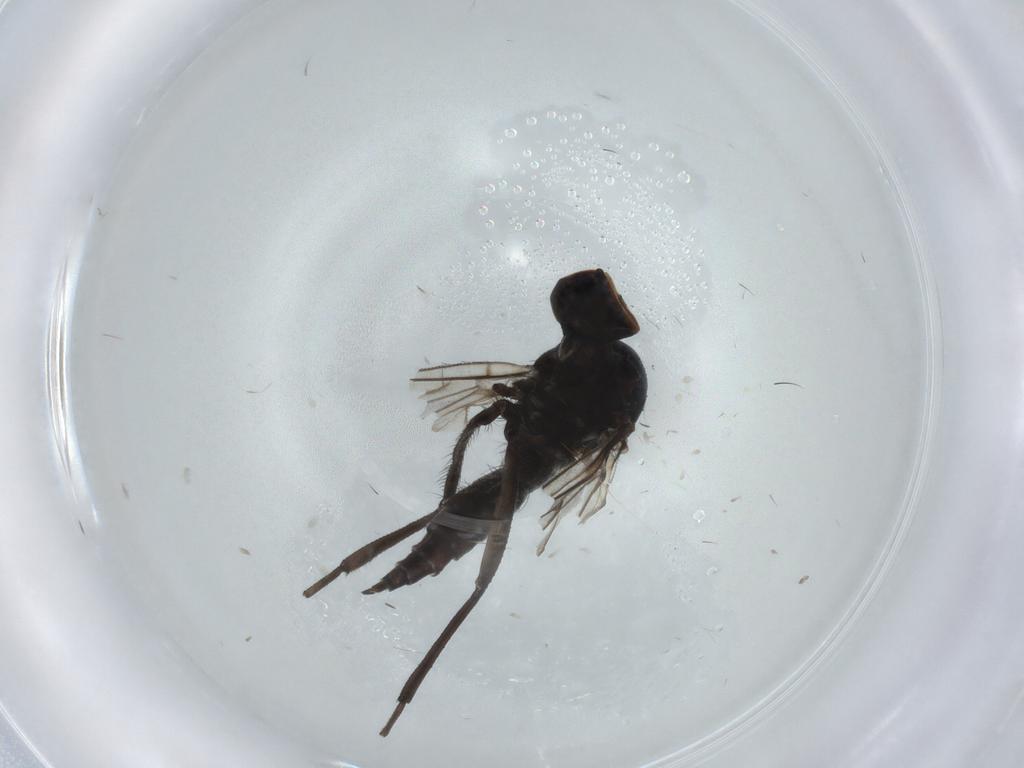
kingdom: Animalia
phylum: Arthropoda
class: Insecta
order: Diptera
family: Hybotidae
